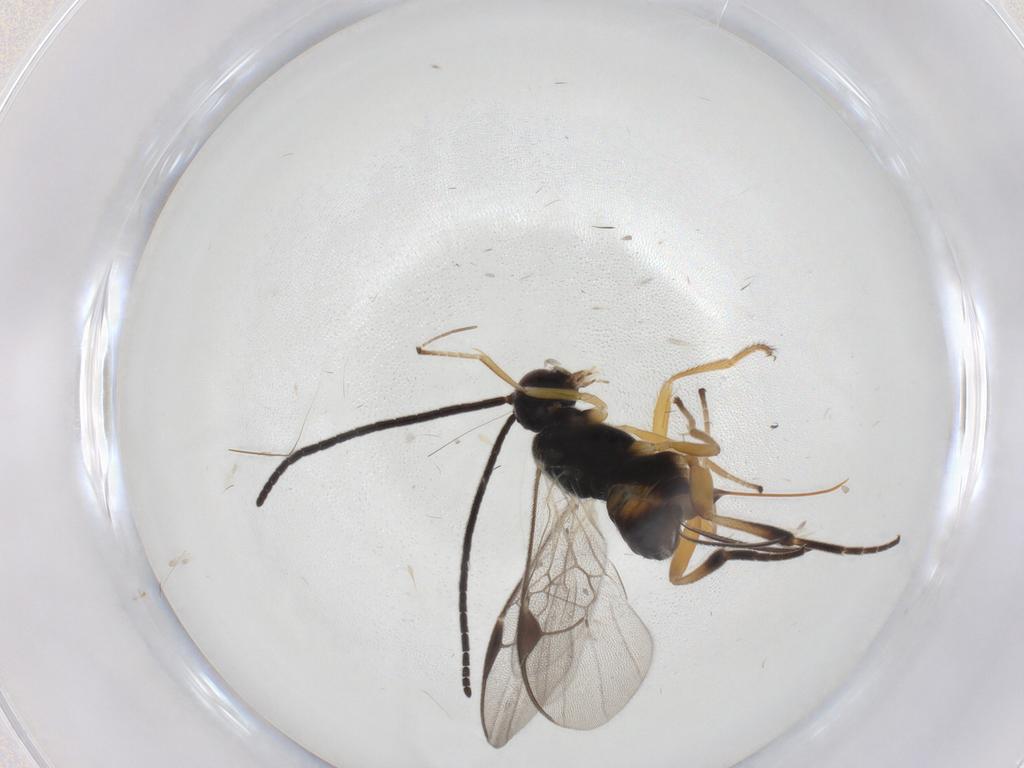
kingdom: Animalia
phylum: Arthropoda
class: Insecta
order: Hymenoptera
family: Braconidae
